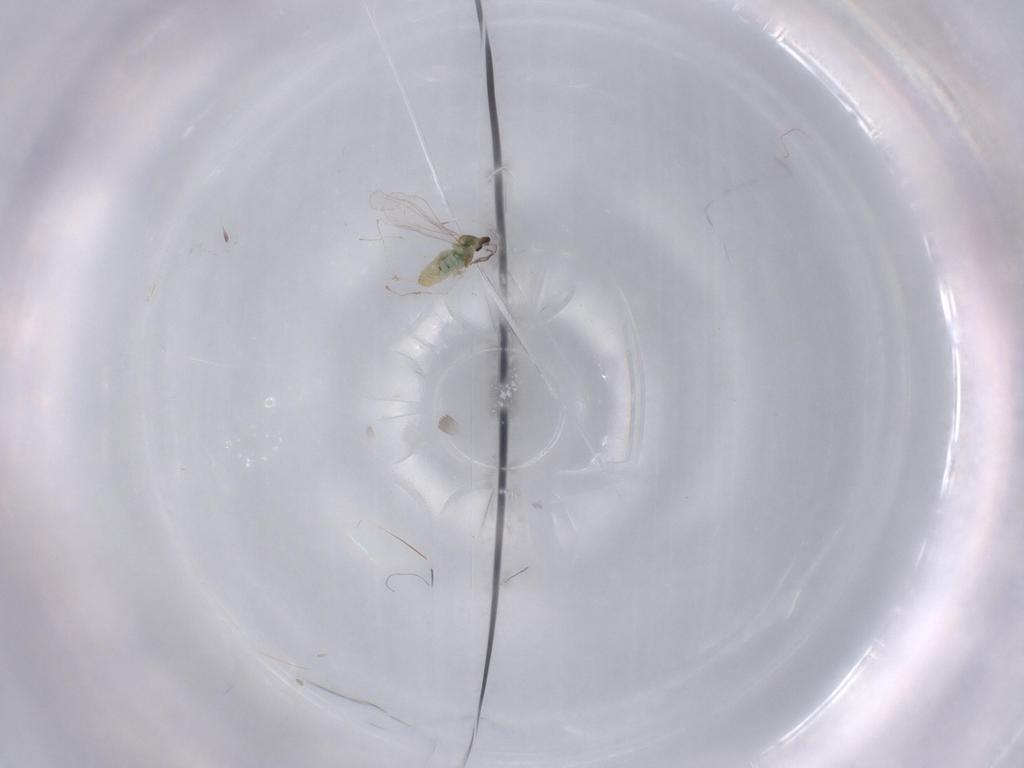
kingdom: Animalia
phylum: Arthropoda
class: Insecta
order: Diptera
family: Cecidomyiidae
